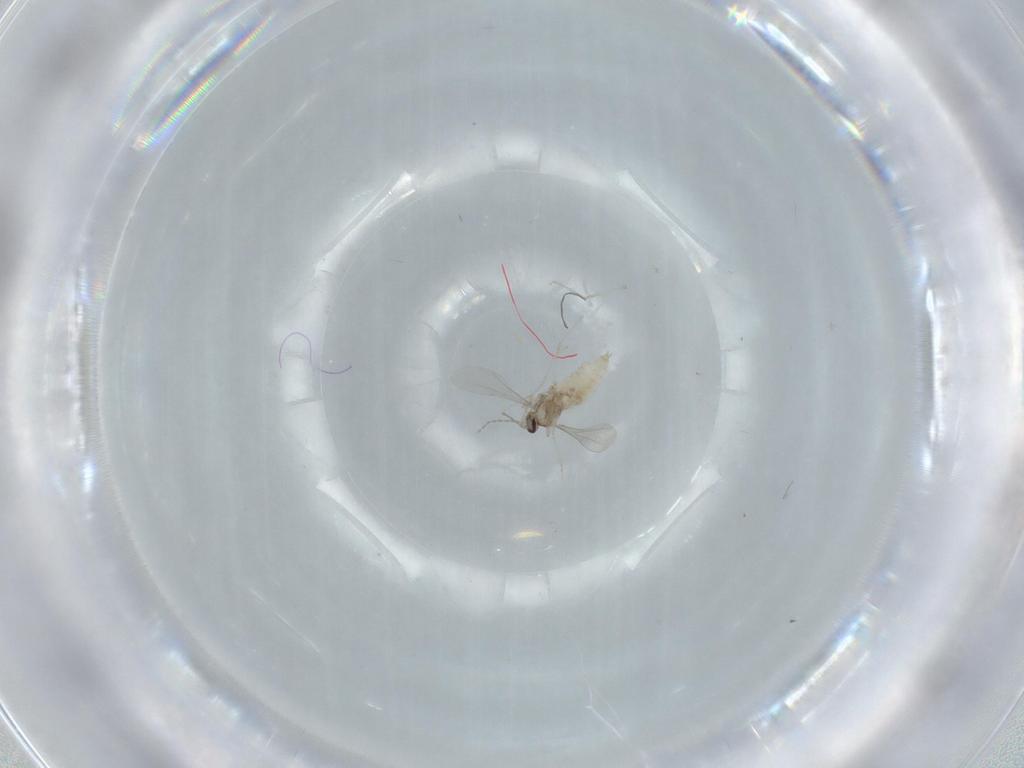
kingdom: Animalia
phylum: Arthropoda
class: Insecta
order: Diptera
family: Cecidomyiidae
